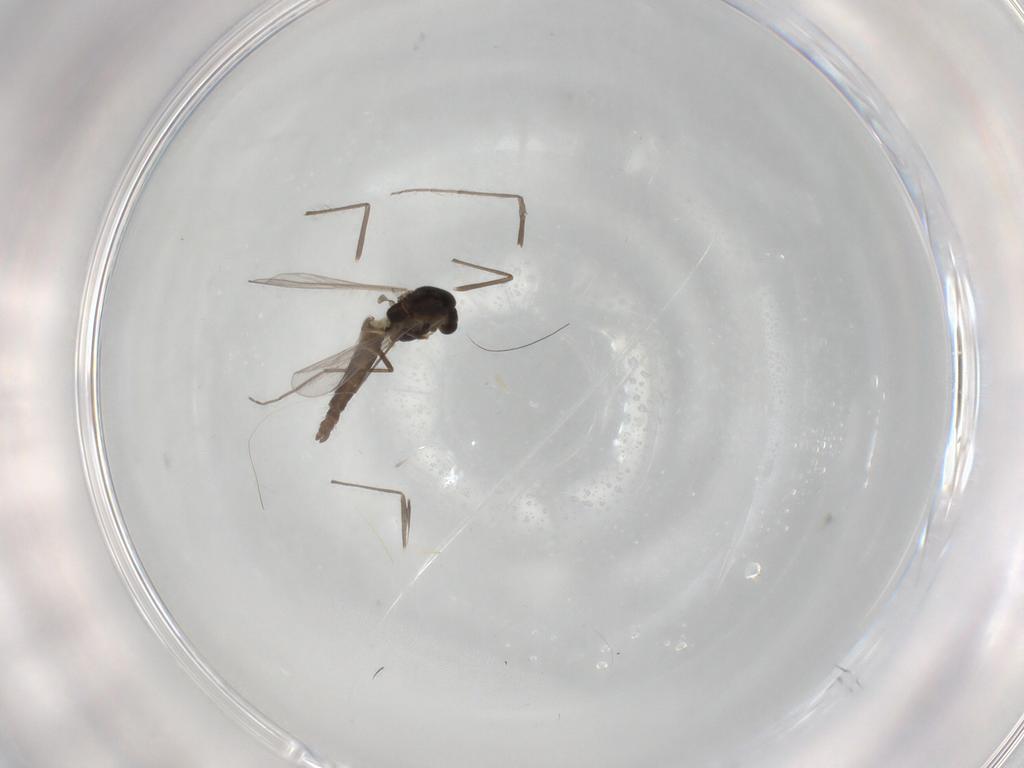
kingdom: Animalia
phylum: Arthropoda
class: Insecta
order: Diptera
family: Chironomidae
